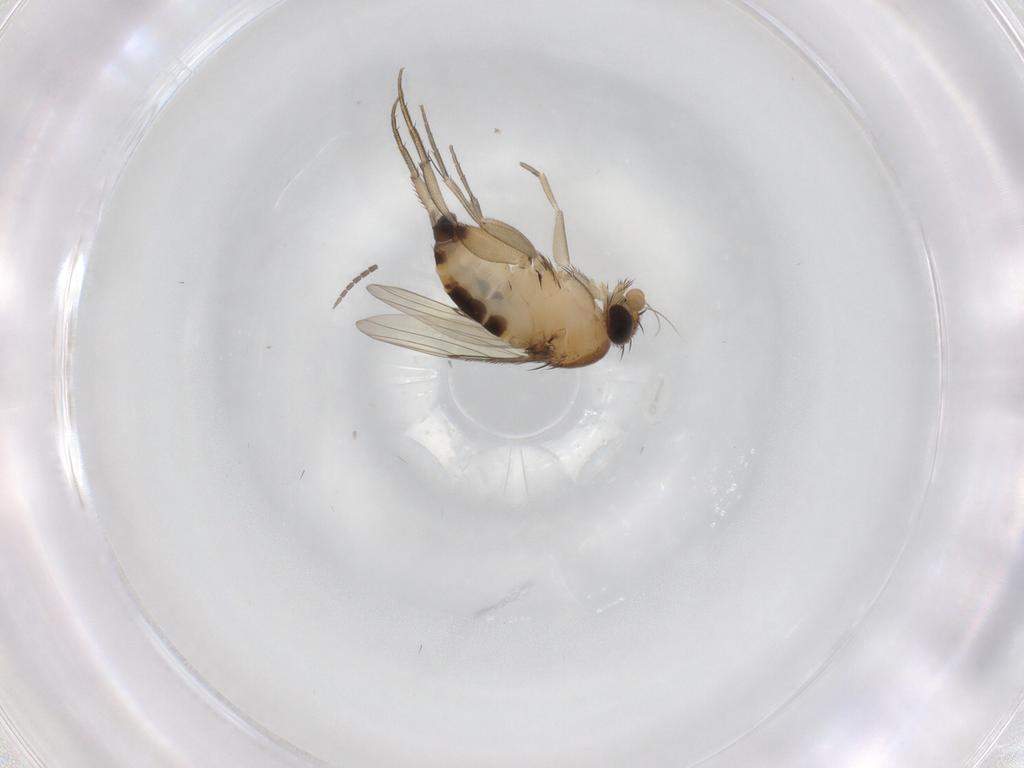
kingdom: Animalia
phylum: Arthropoda
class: Insecta
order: Diptera
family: Phoridae
